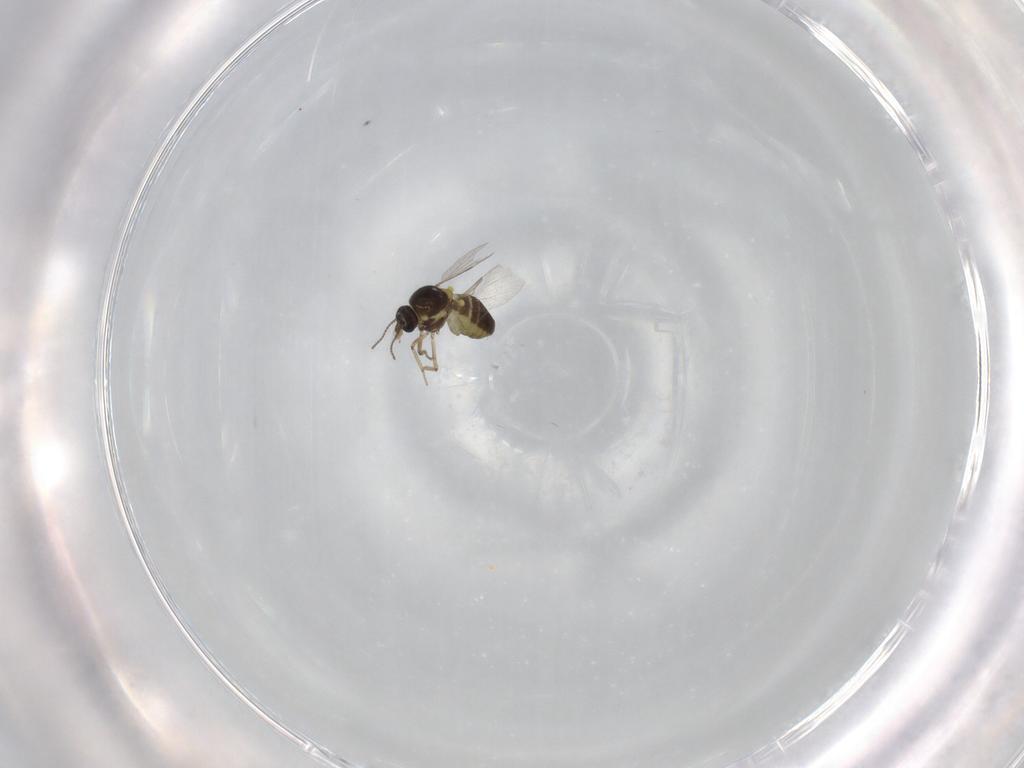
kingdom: Animalia
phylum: Arthropoda
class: Insecta
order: Diptera
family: Ceratopogonidae
